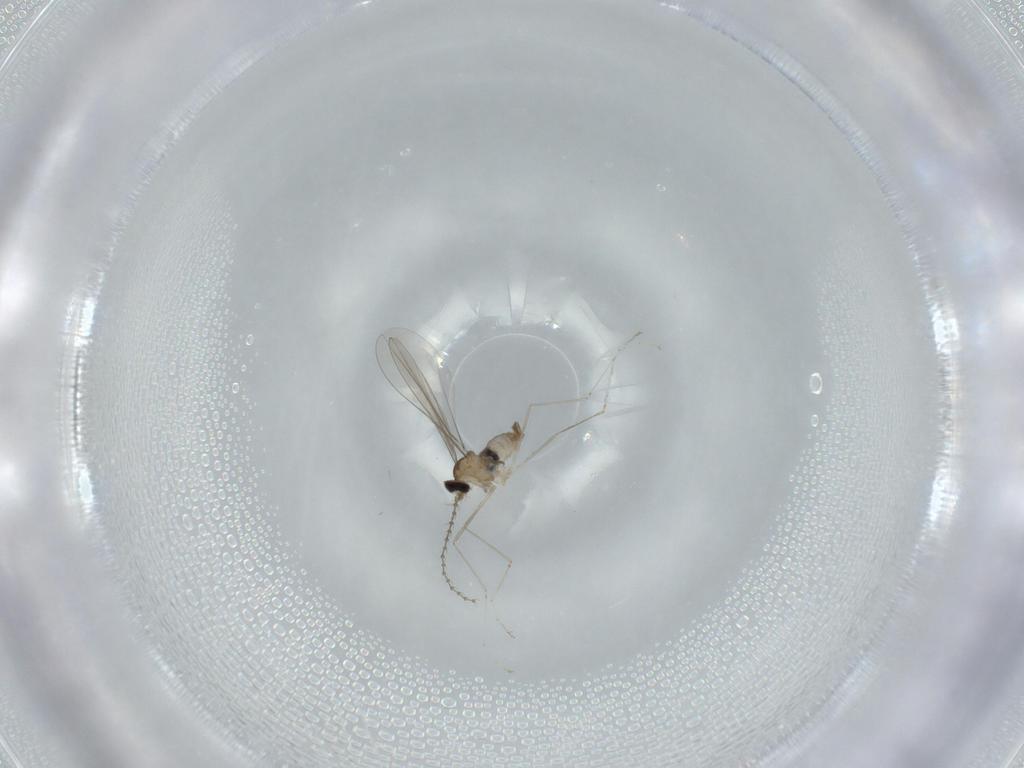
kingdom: Animalia
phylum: Arthropoda
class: Insecta
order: Diptera
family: Cecidomyiidae
